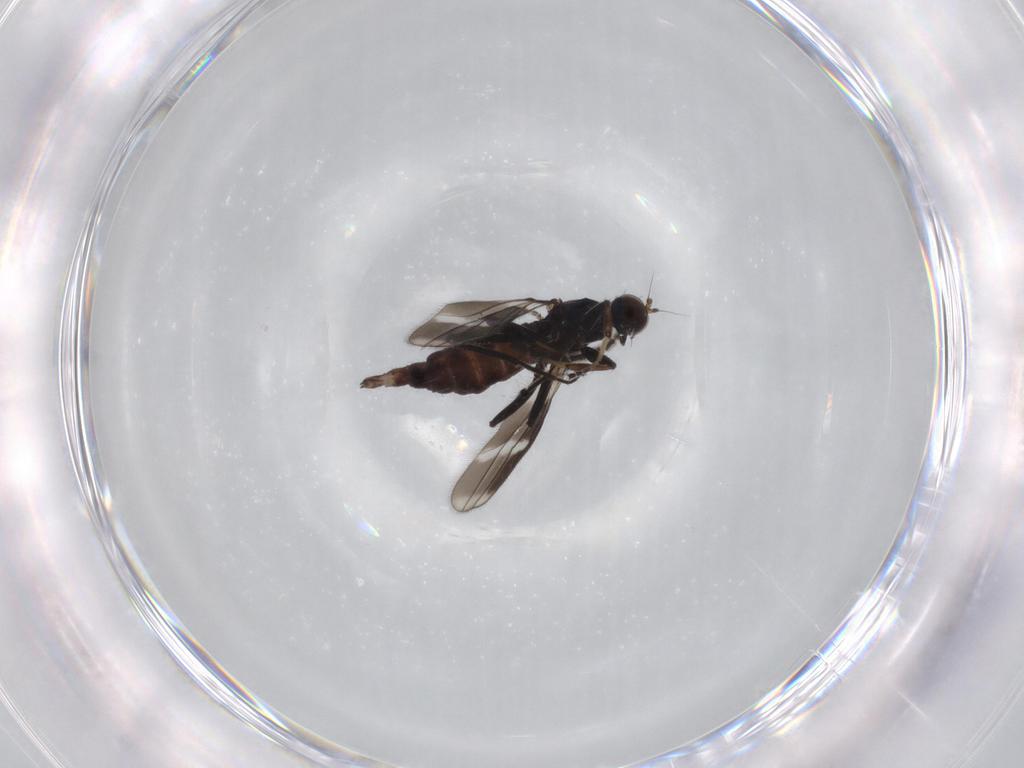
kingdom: Animalia
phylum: Arthropoda
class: Insecta
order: Diptera
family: Hybotidae
